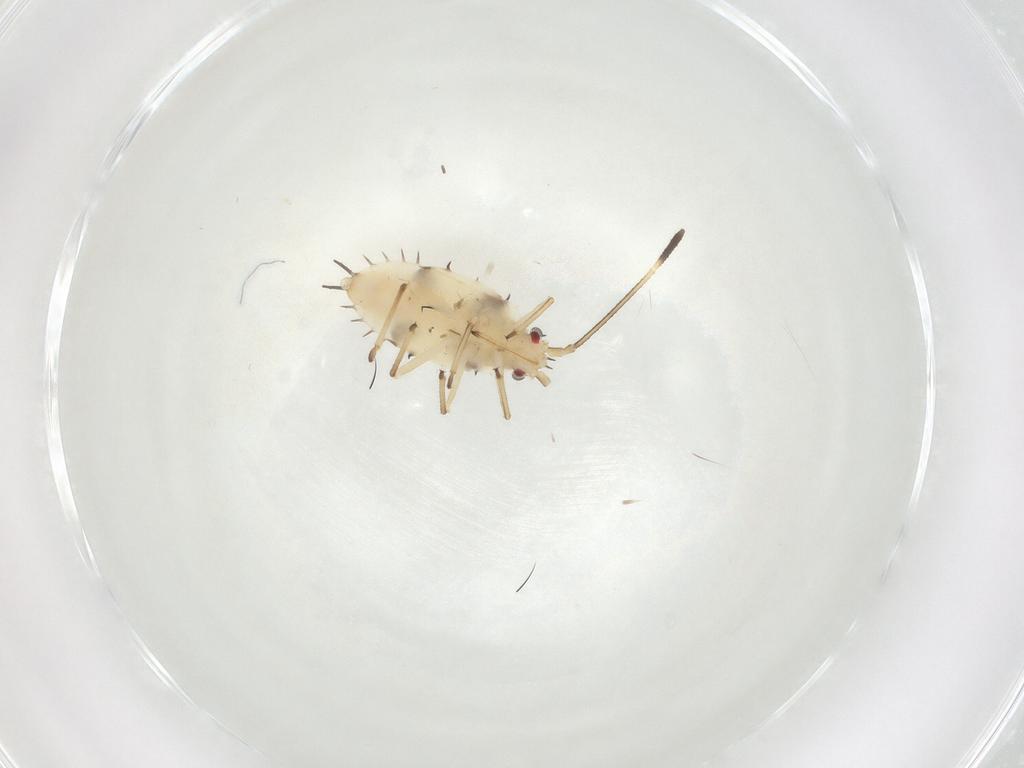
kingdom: Animalia
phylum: Arthropoda
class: Insecta
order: Hemiptera
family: Tingidae
